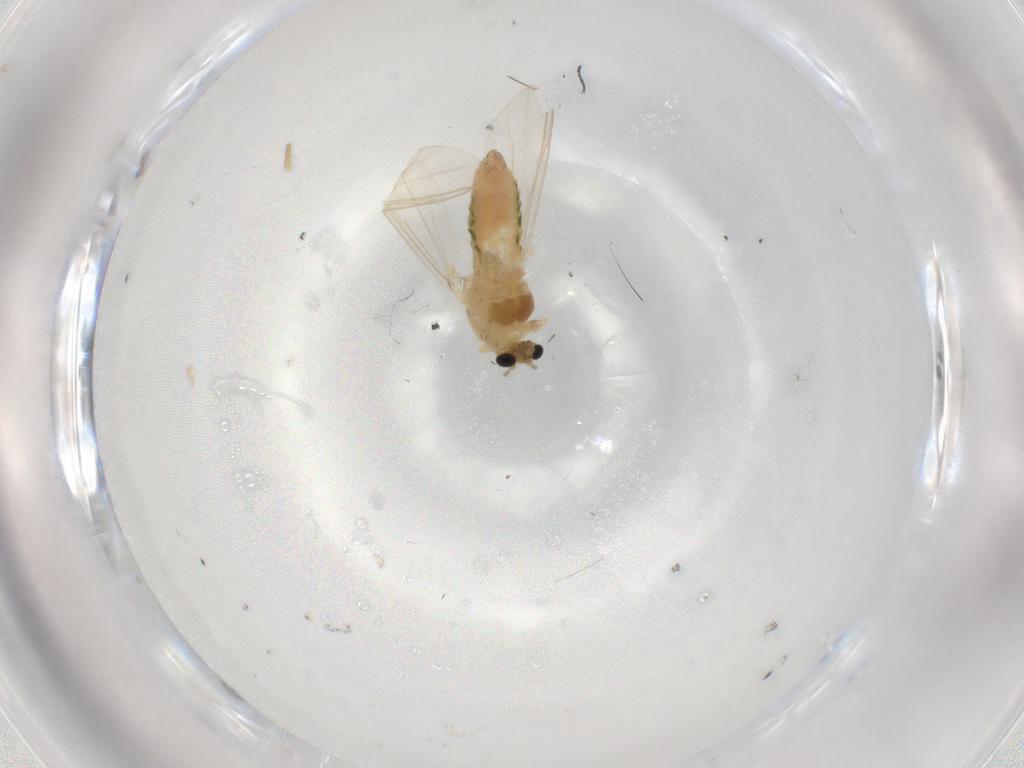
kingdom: Animalia
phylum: Arthropoda
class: Insecta
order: Diptera
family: Chironomidae
